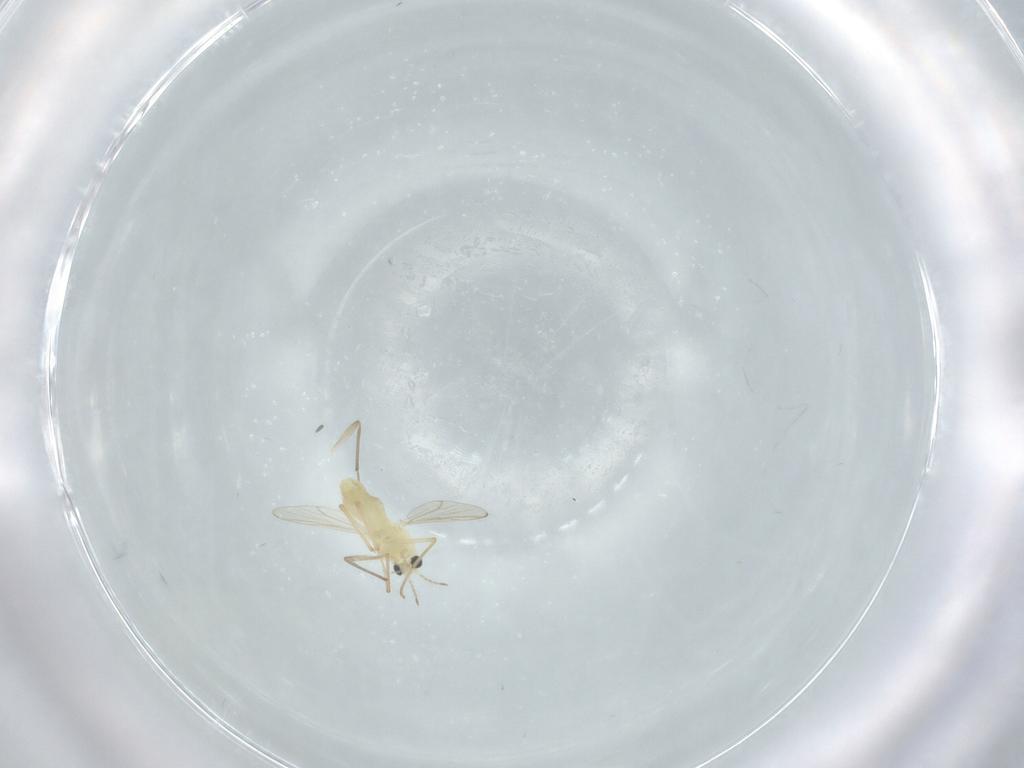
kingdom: Animalia
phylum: Arthropoda
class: Insecta
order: Diptera
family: Chironomidae
